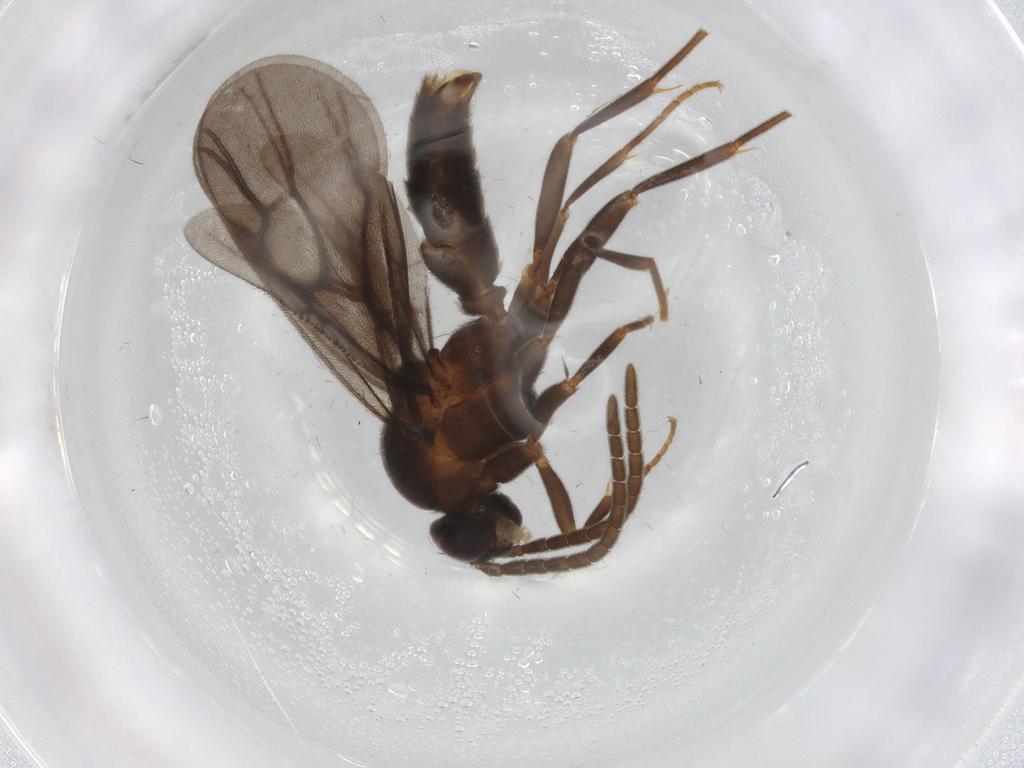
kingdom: Animalia
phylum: Arthropoda
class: Insecta
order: Hymenoptera
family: Formicidae
